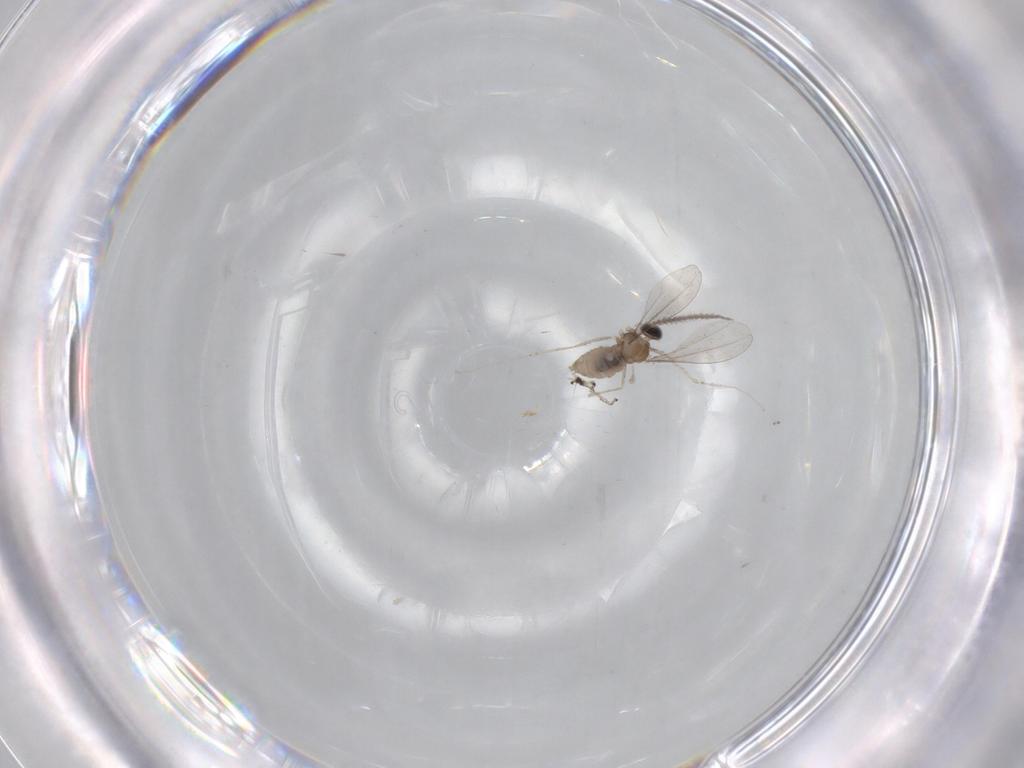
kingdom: Animalia
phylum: Arthropoda
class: Insecta
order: Diptera
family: Cecidomyiidae
